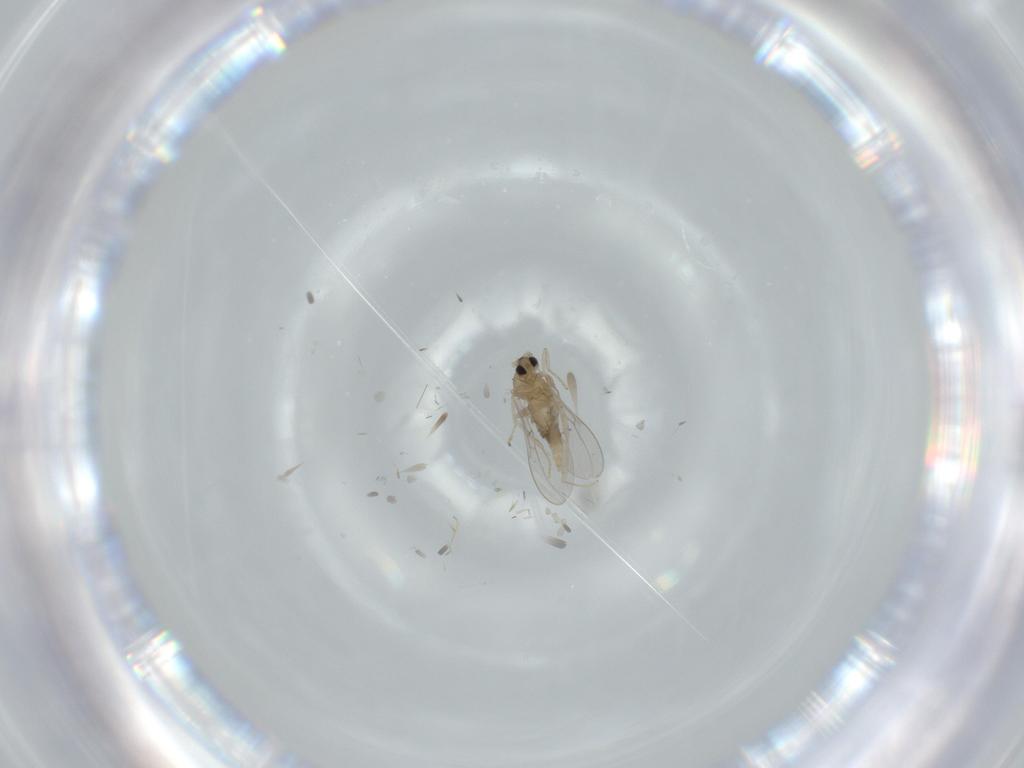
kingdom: Animalia
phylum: Arthropoda
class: Insecta
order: Diptera
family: Cecidomyiidae
